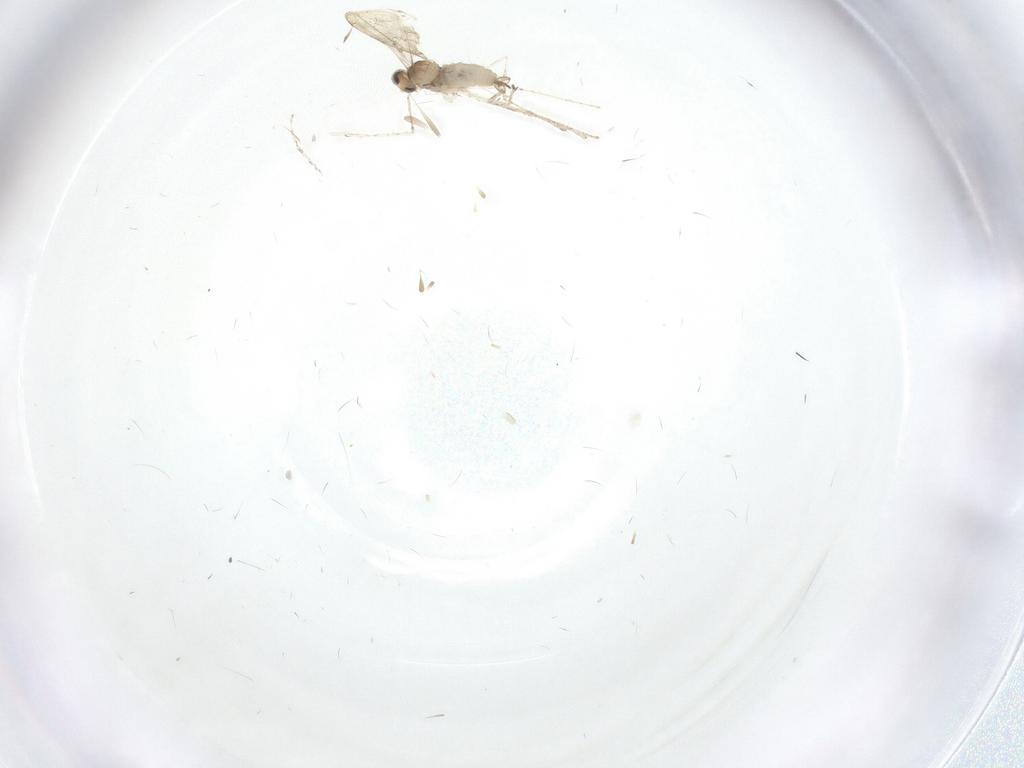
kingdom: Animalia
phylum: Arthropoda
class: Insecta
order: Diptera
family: Cecidomyiidae
